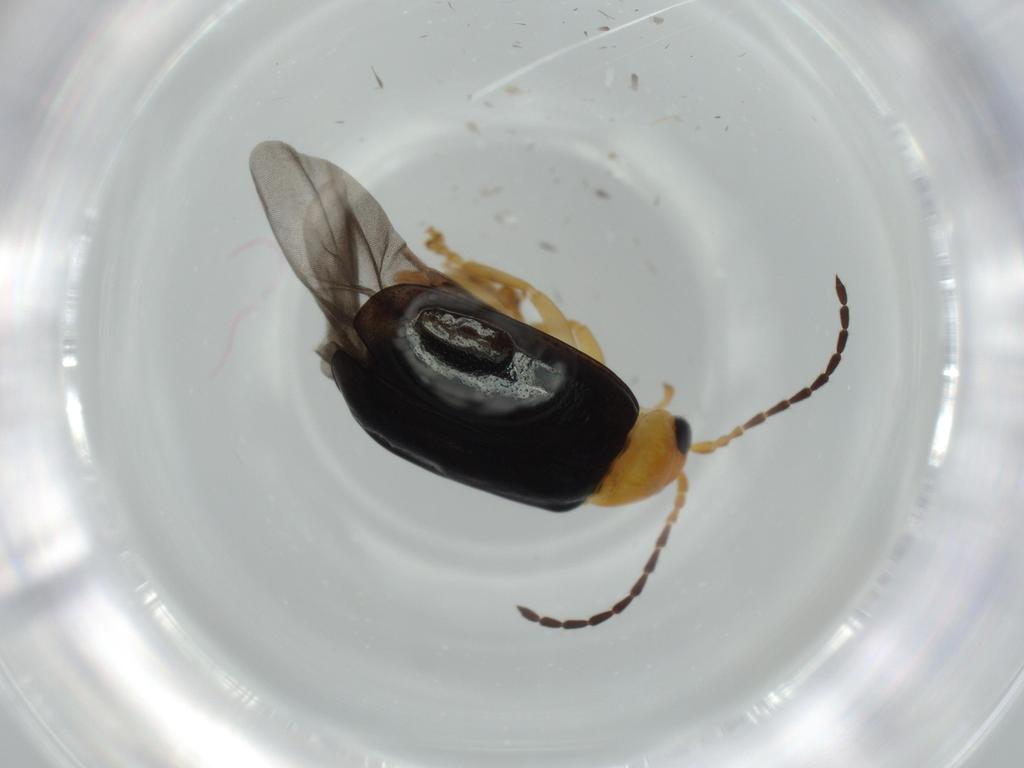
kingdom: Animalia
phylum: Arthropoda
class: Insecta
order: Coleoptera
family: Chrysomelidae
